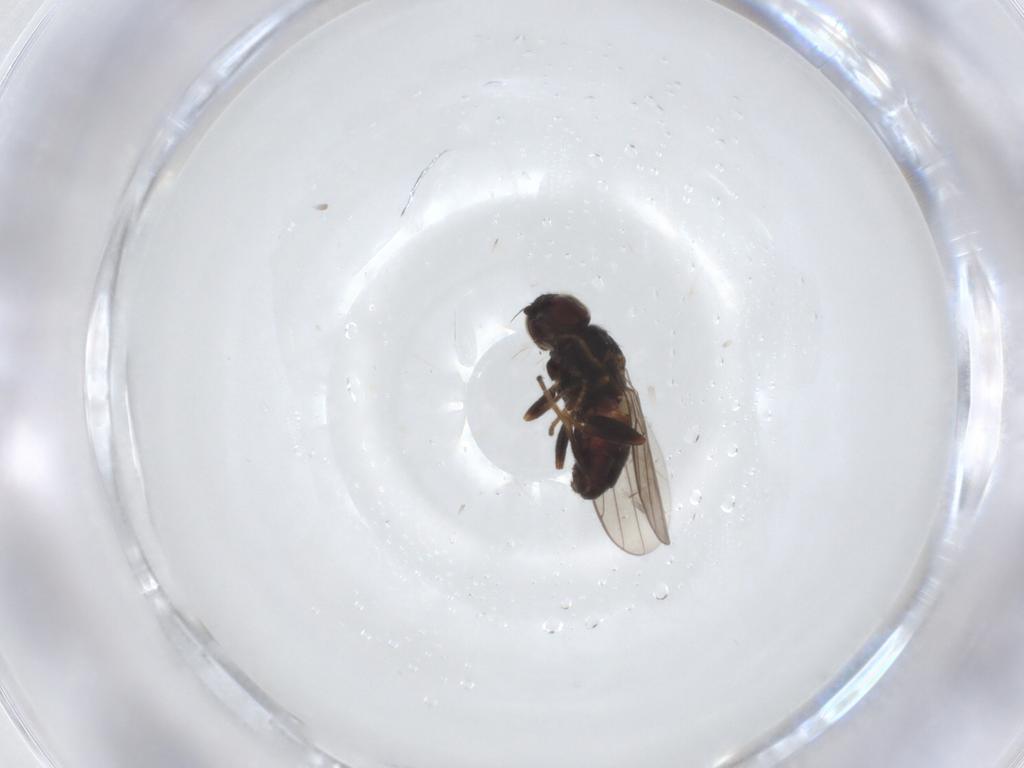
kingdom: Animalia
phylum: Arthropoda
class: Insecta
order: Diptera
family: Chloropidae
